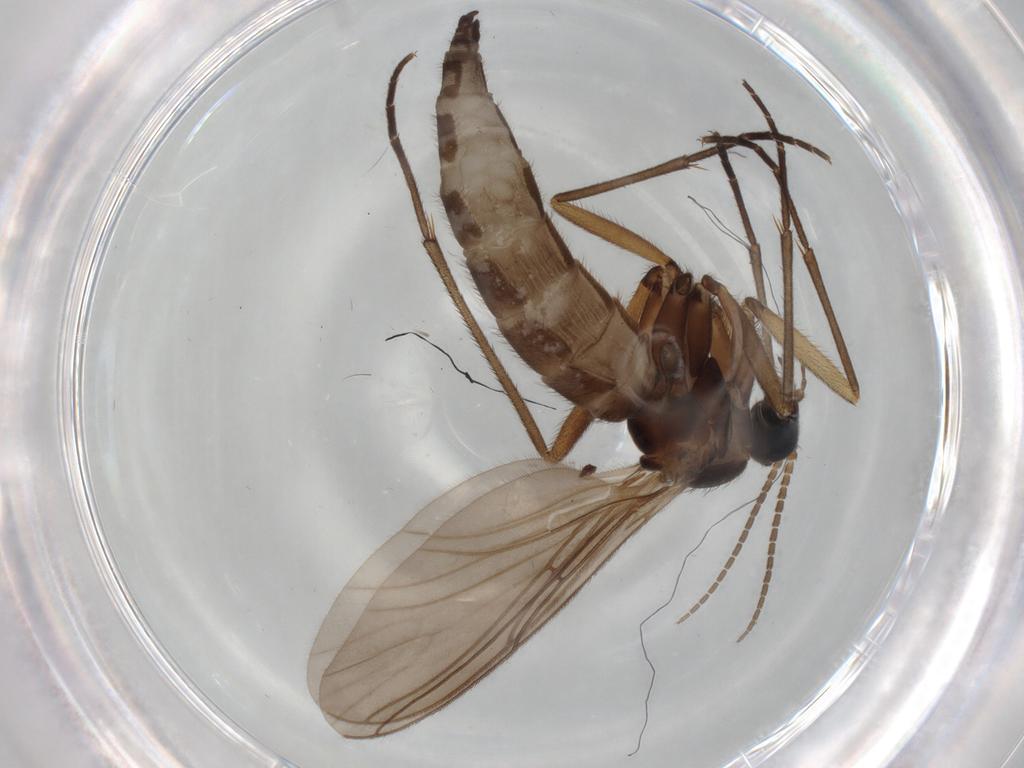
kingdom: Animalia
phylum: Arthropoda
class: Insecta
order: Diptera
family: Sciaridae
